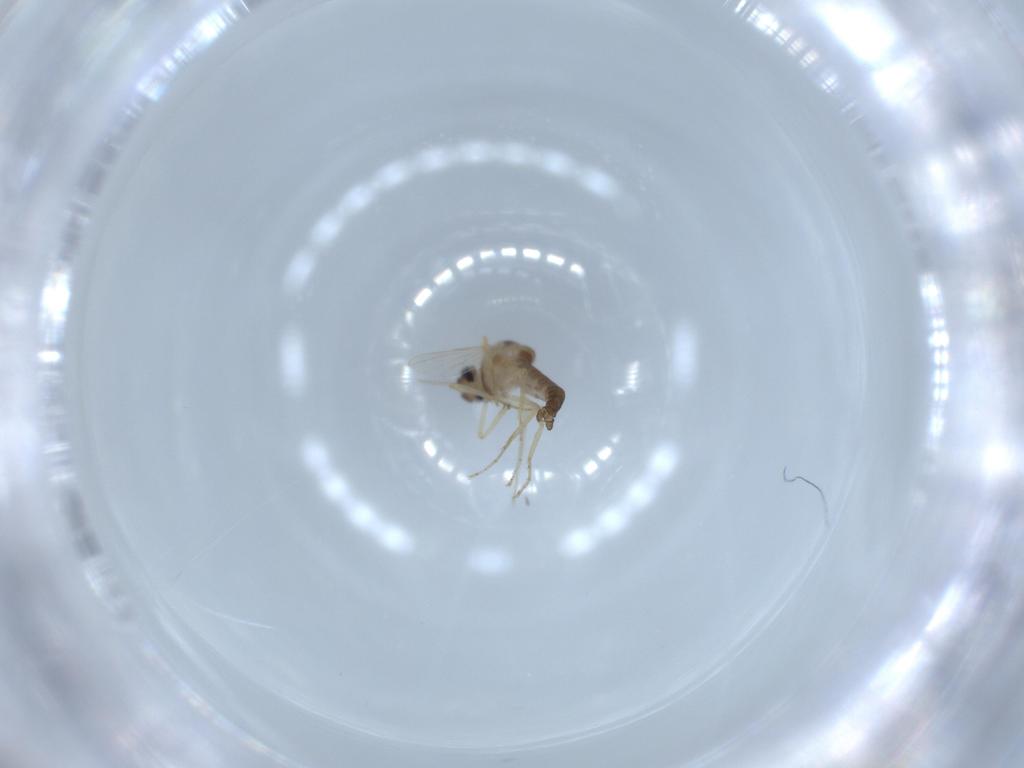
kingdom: Animalia
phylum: Arthropoda
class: Insecta
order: Diptera
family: Ceratopogonidae
